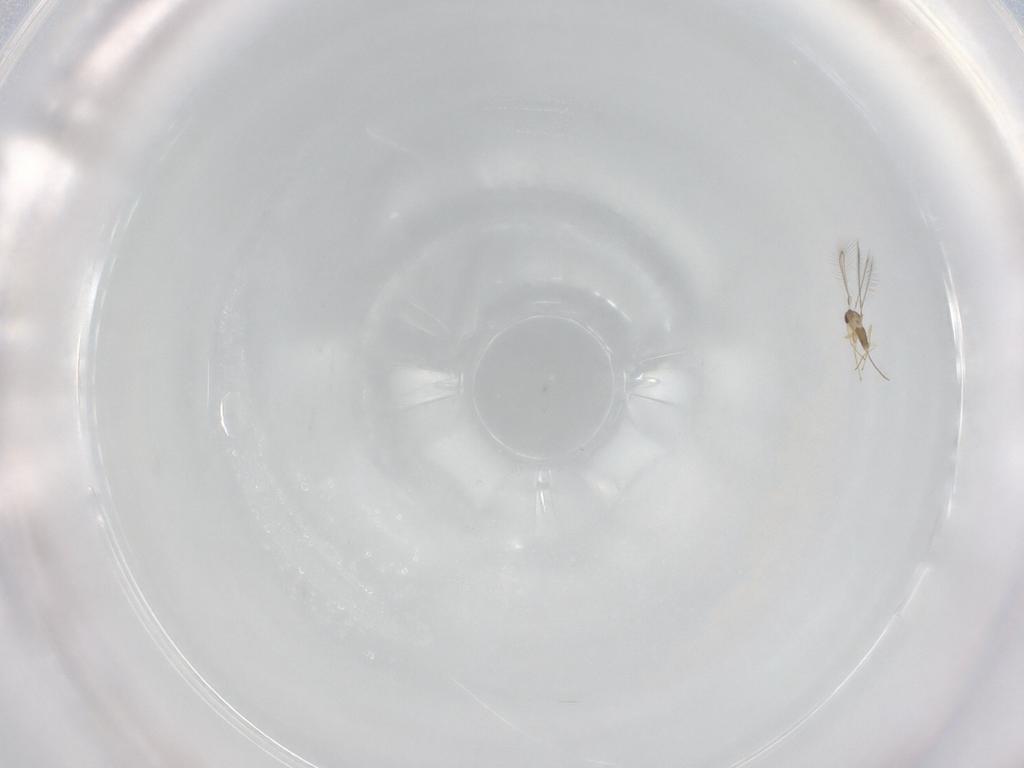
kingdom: Animalia
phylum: Arthropoda
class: Insecta
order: Hymenoptera
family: Mymaridae
